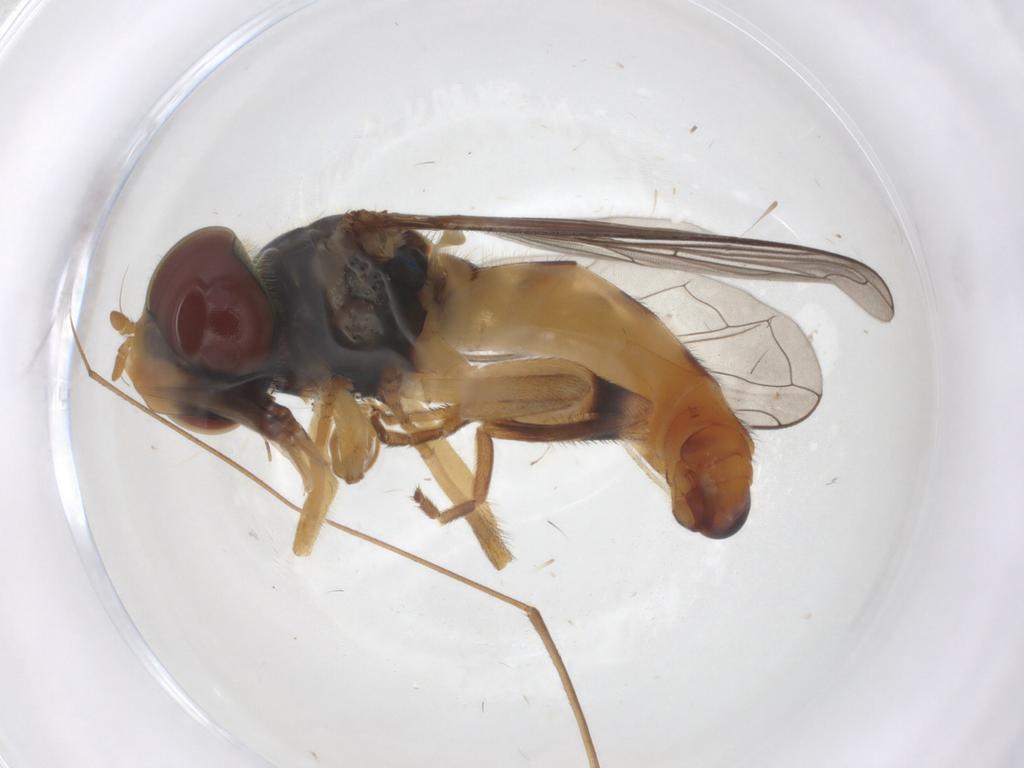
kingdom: Animalia
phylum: Arthropoda
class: Insecta
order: Diptera
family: Syrphidae
